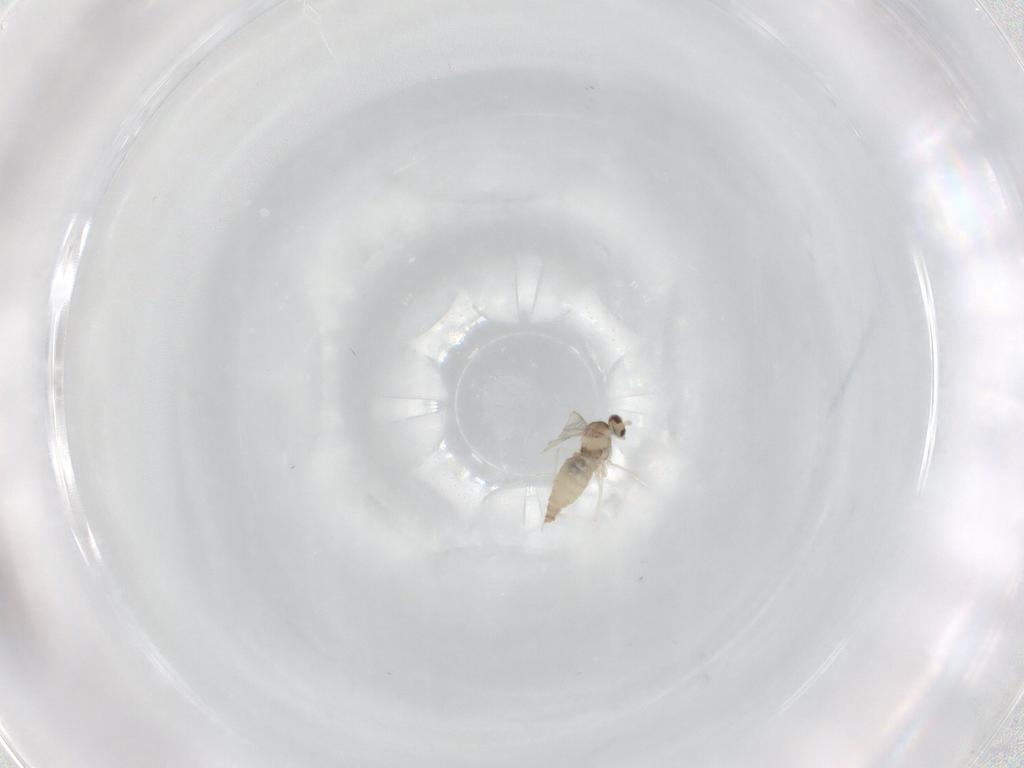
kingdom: Animalia
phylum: Arthropoda
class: Insecta
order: Diptera
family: Cecidomyiidae
